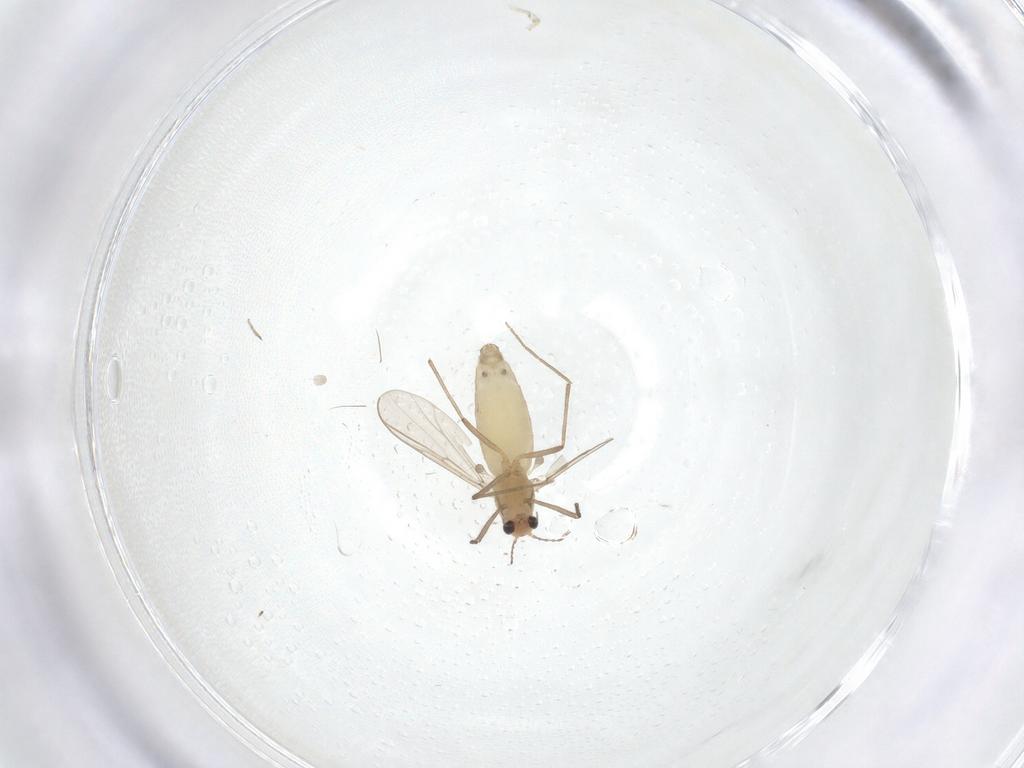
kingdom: Animalia
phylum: Arthropoda
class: Insecta
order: Diptera
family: Chironomidae
